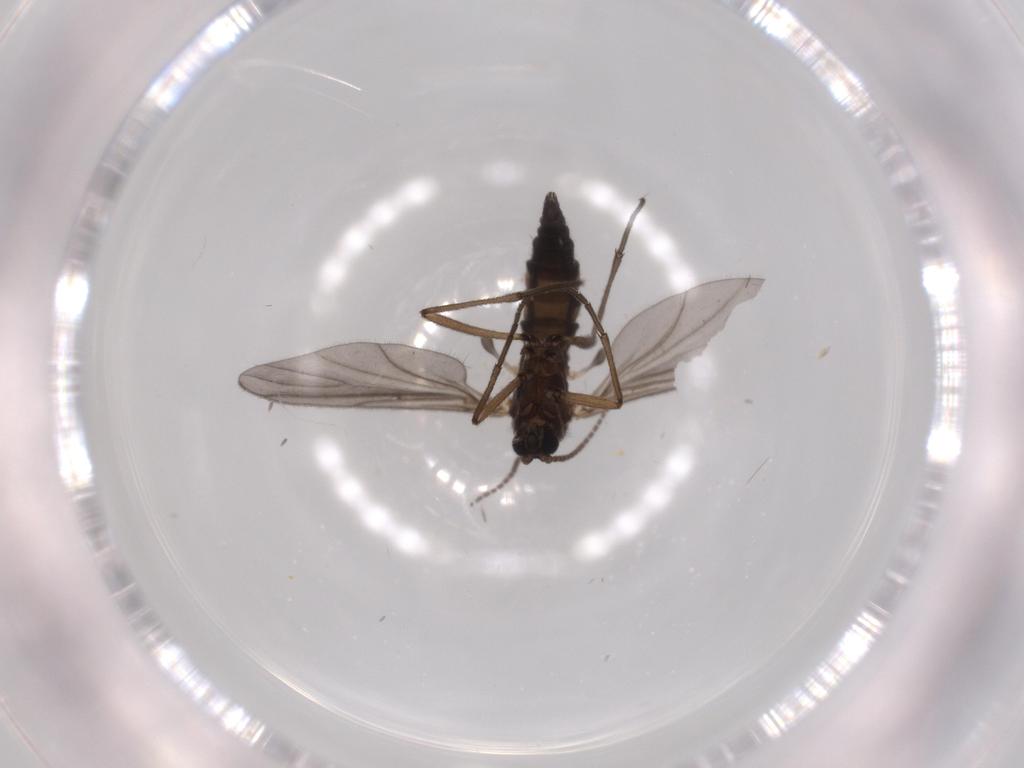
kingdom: Animalia
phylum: Arthropoda
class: Insecta
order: Diptera
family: Sciaridae
